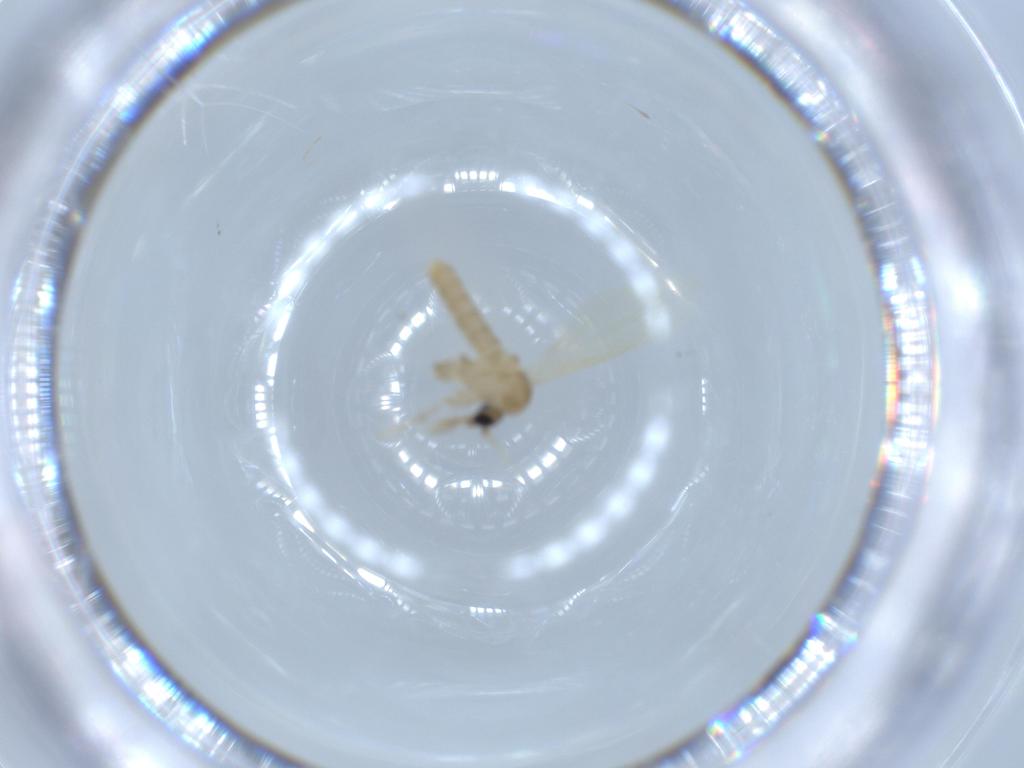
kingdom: Animalia
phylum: Arthropoda
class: Insecta
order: Diptera
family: Psychodidae
